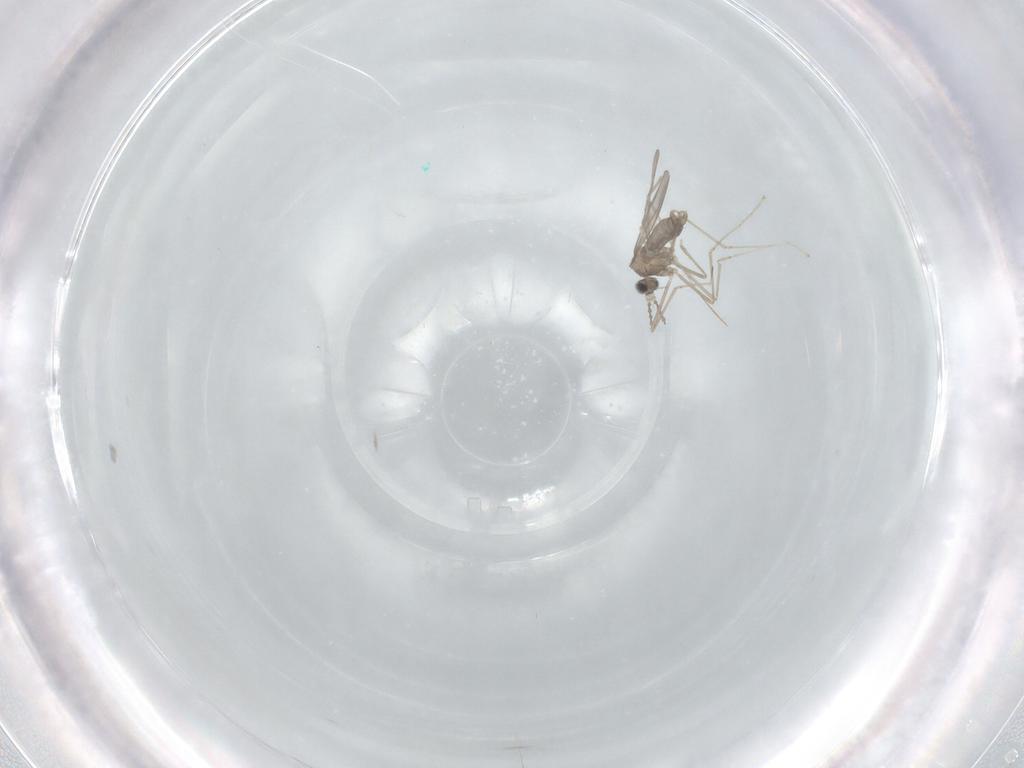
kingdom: Animalia
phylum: Arthropoda
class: Insecta
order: Diptera
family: Cecidomyiidae
